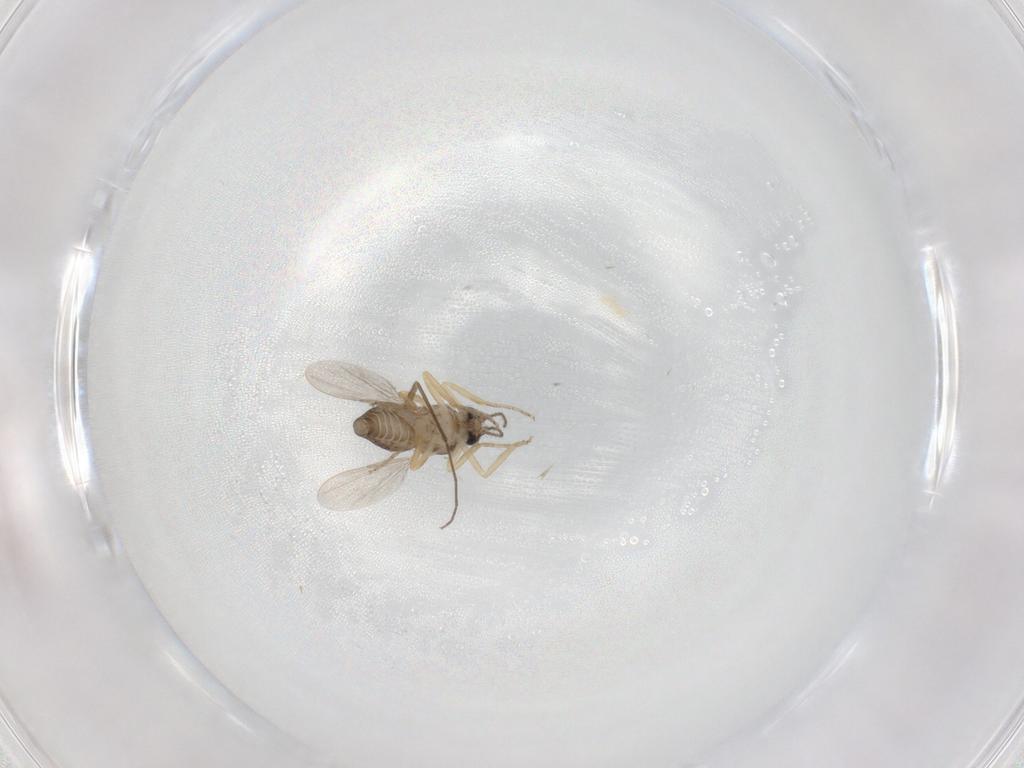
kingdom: Animalia
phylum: Arthropoda
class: Insecta
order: Diptera
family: Ceratopogonidae
